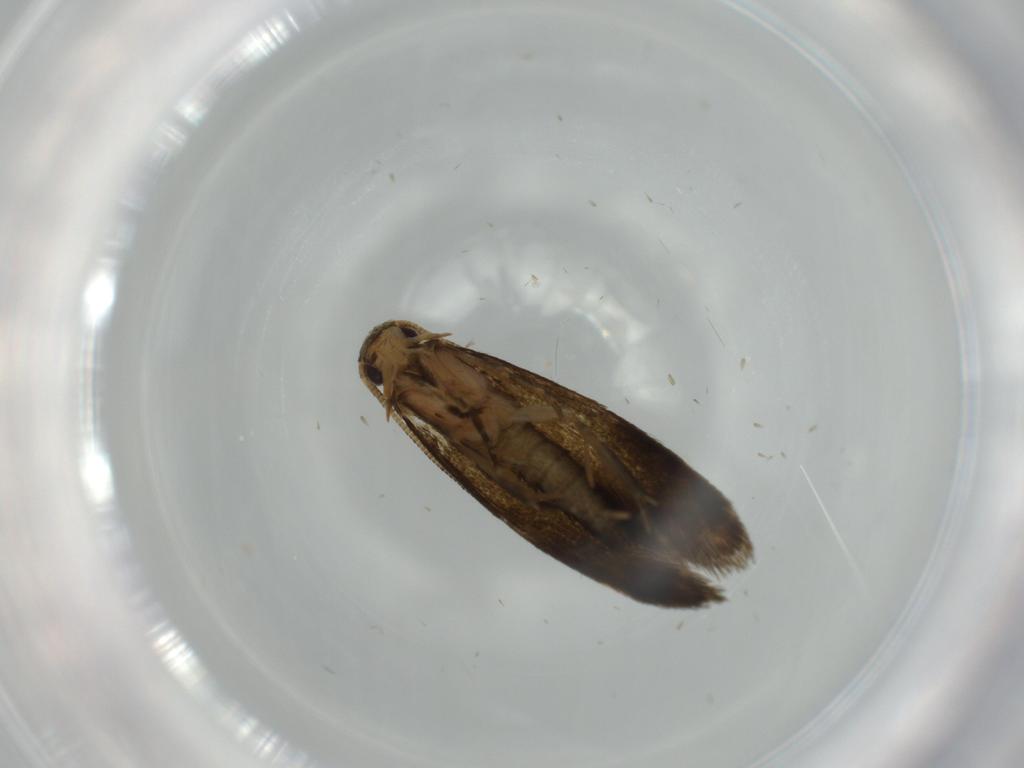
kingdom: Animalia
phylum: Arthropoda
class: Insecta
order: Lepidoptera
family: Tineidae
